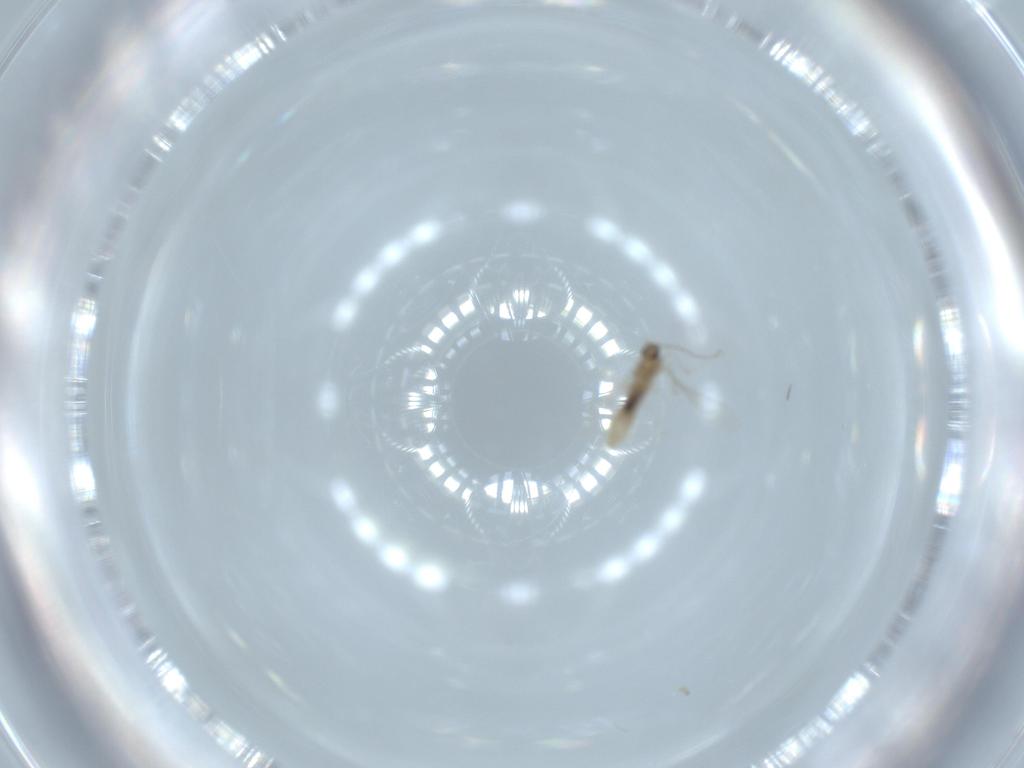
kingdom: Animalia
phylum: Arthropoda
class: Insecta
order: Diptera
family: Cecidomyiidae
